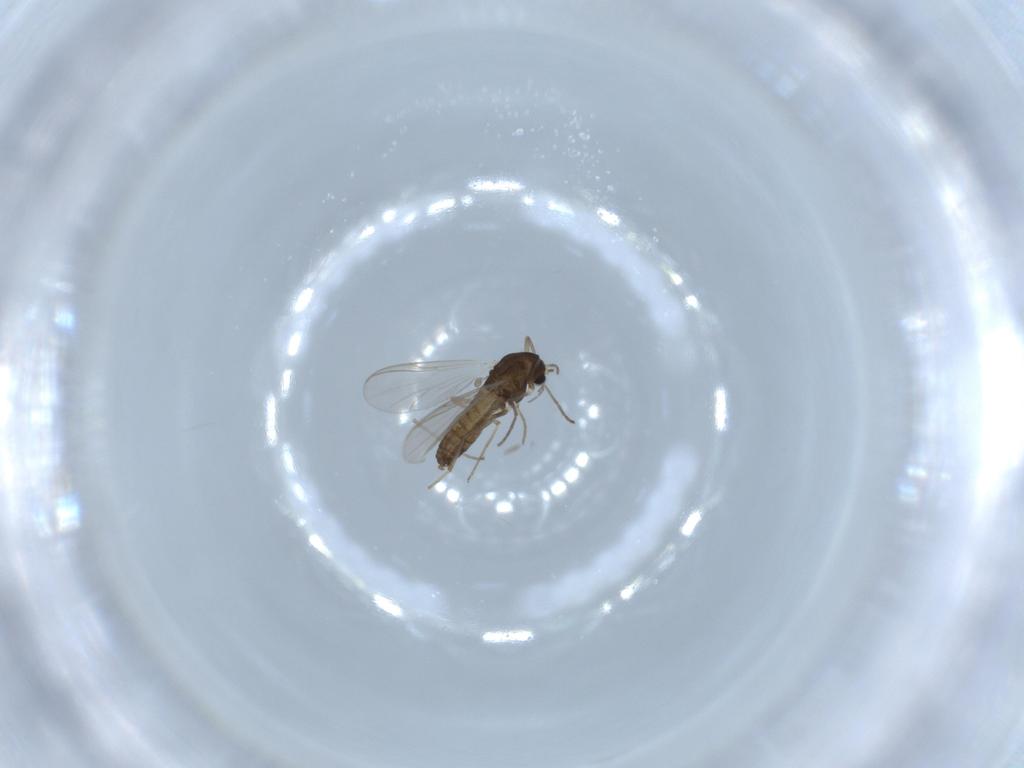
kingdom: Animalia
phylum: Arthropoda
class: Insecta
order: Diptera
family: Chironomidae
